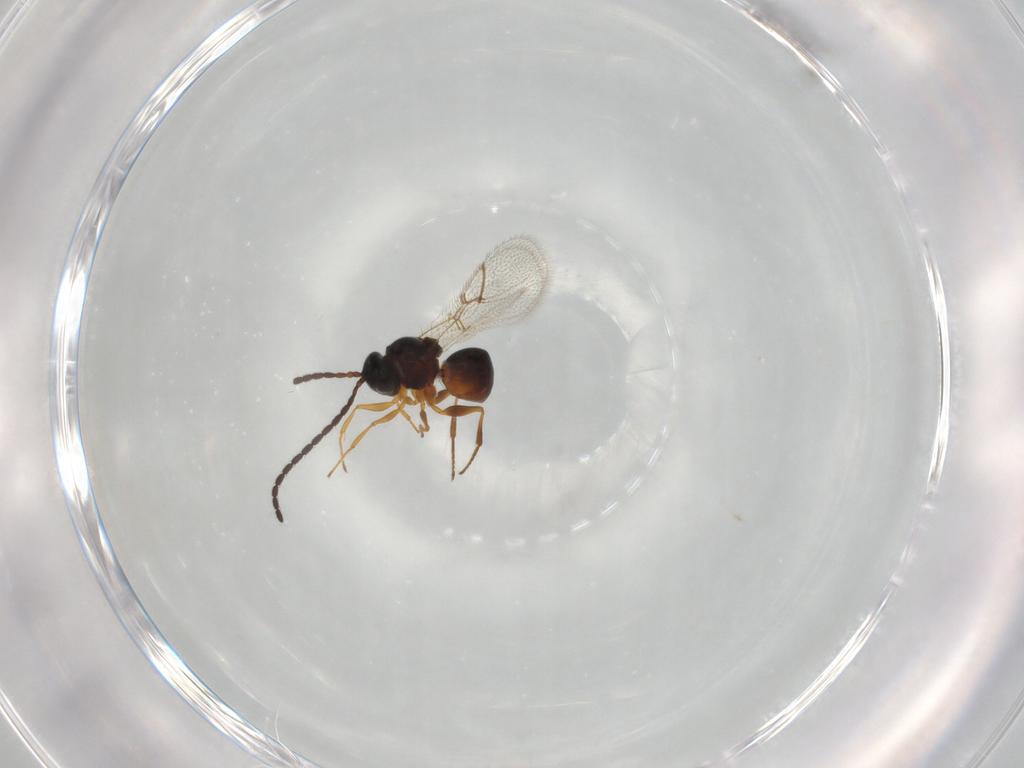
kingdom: Animalia
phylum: Arthropoda
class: Insecta
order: Hymenoptera
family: Figitidae
